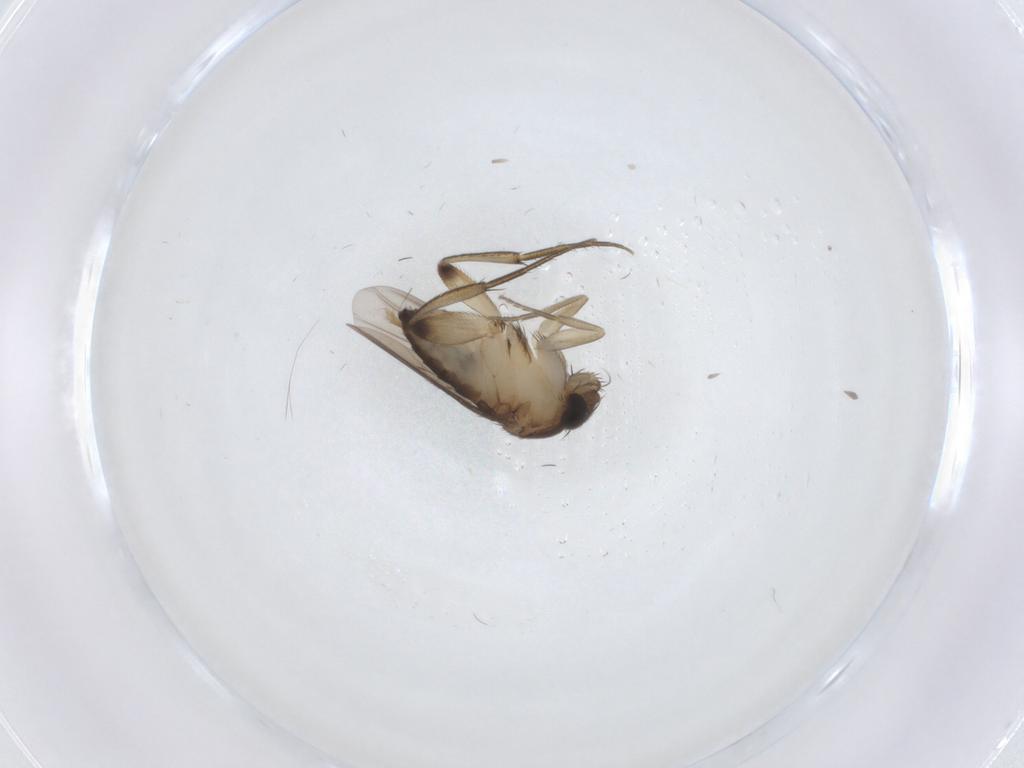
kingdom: Animalia
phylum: Arthropoda
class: Insecta
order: Diptera
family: Phoridae
